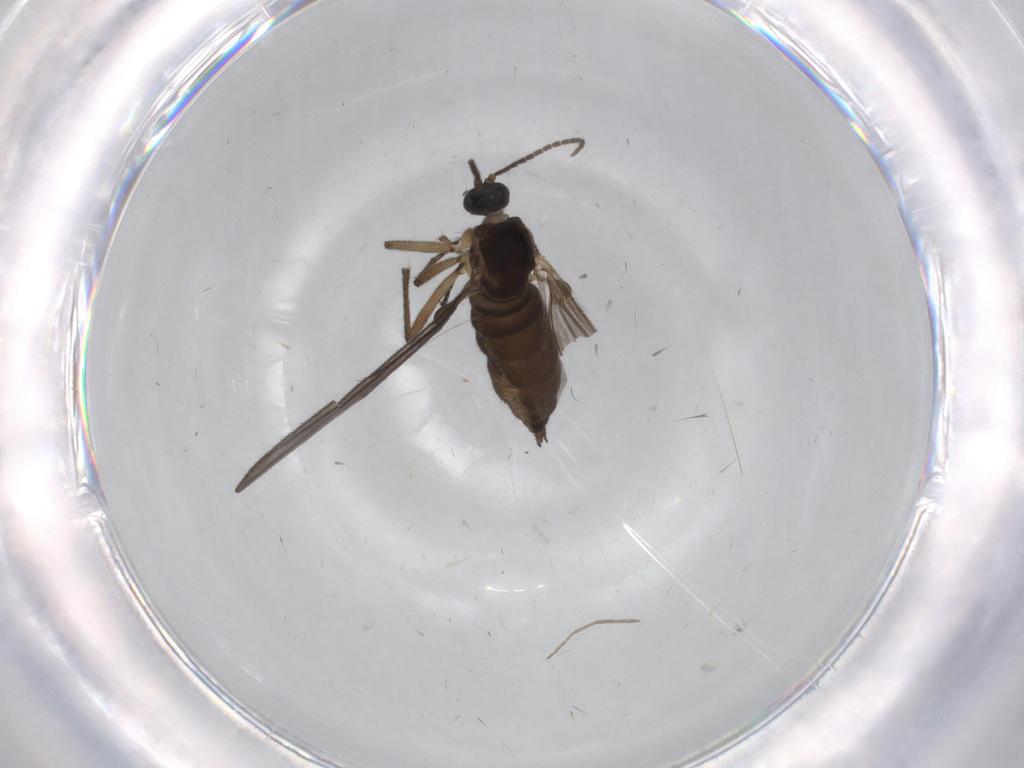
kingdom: Animalia
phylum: Arthropoda
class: Insecta
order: Diptera
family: Sciaridae
